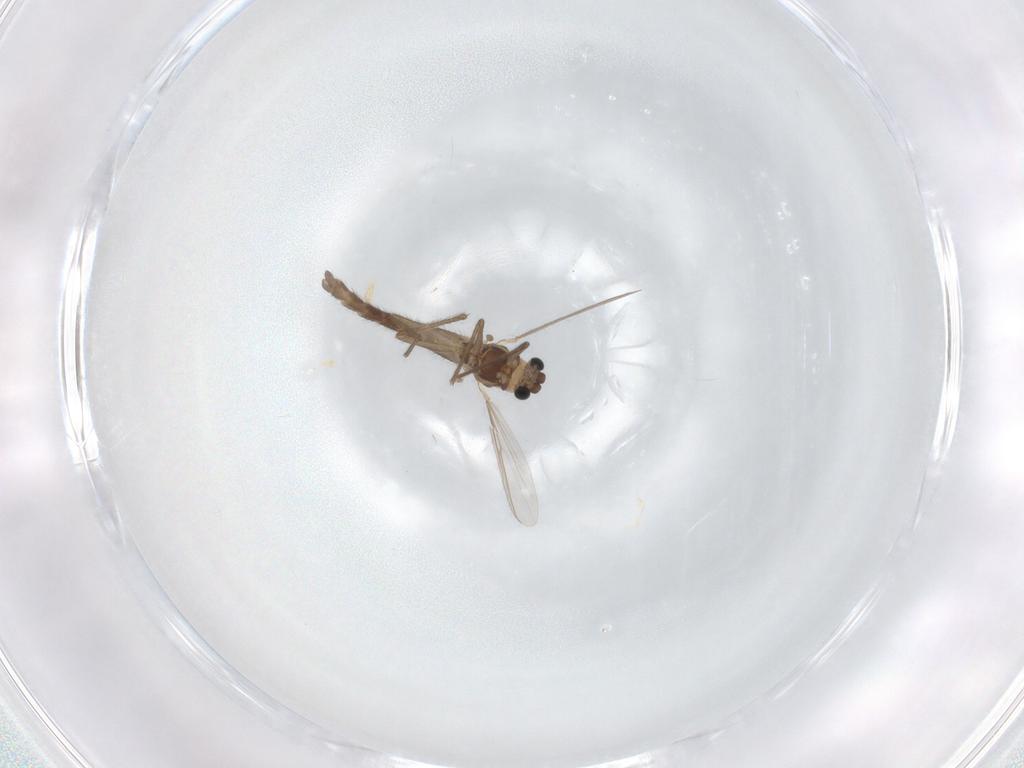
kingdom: Animalia
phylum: Arthropoda
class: Insecta
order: Diptera
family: Chironomidae
